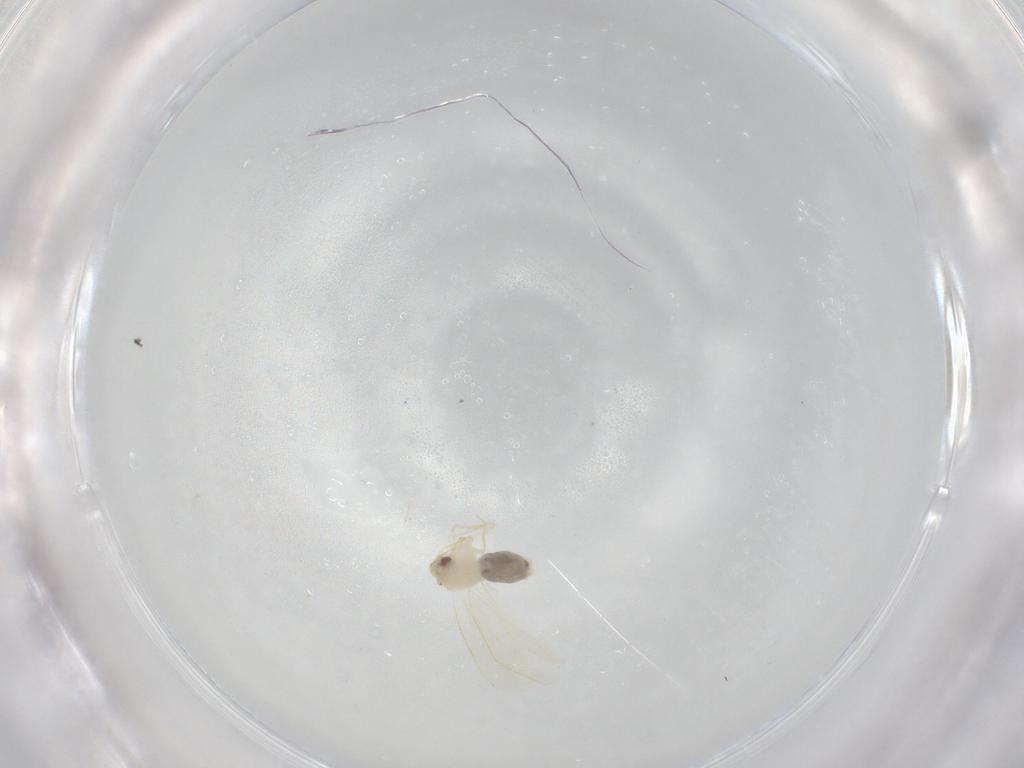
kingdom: Animalia
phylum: Arthropoda
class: Insecta
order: Hemiptera
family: Aleyrodidae
